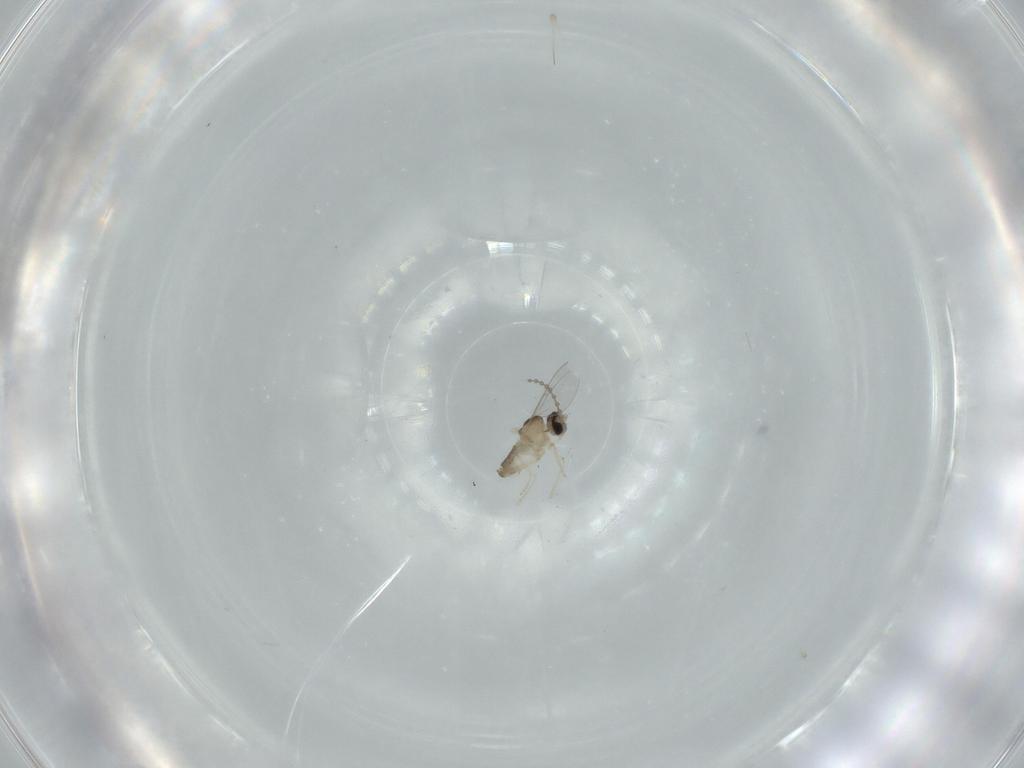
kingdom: Animalia
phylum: Arthropoda
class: Insecta
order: Diptera
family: Cecidomyiidae
